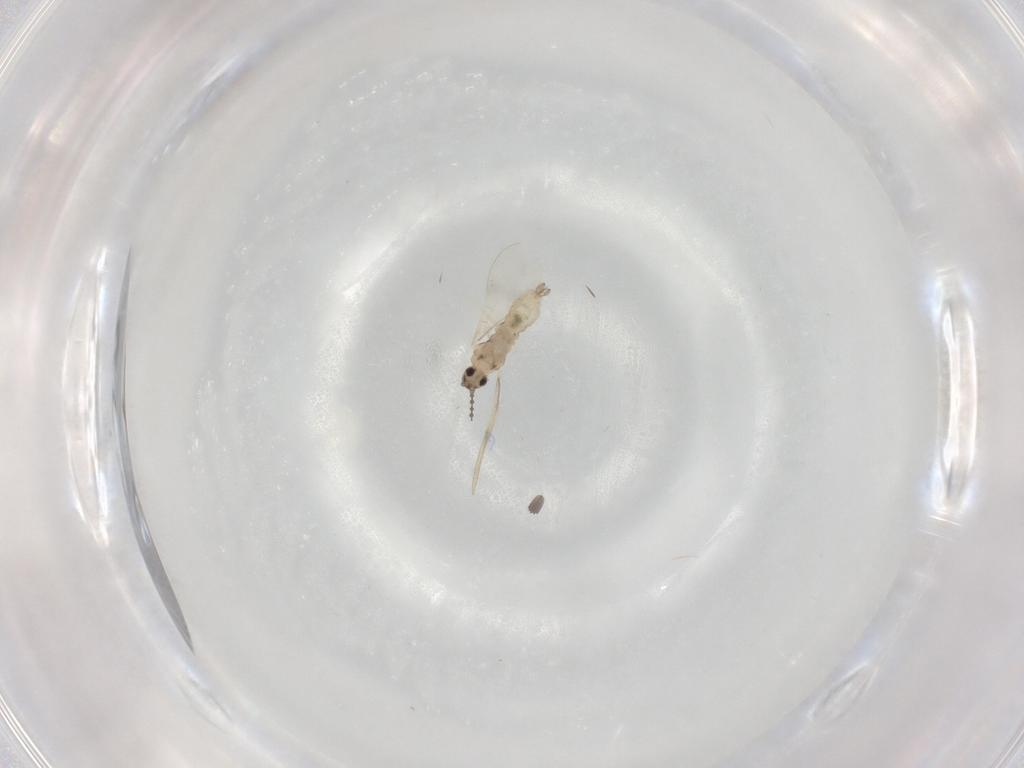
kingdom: Animalia
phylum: Arthropoda
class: Insecta
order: Diptera
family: Cecidomyiidae
